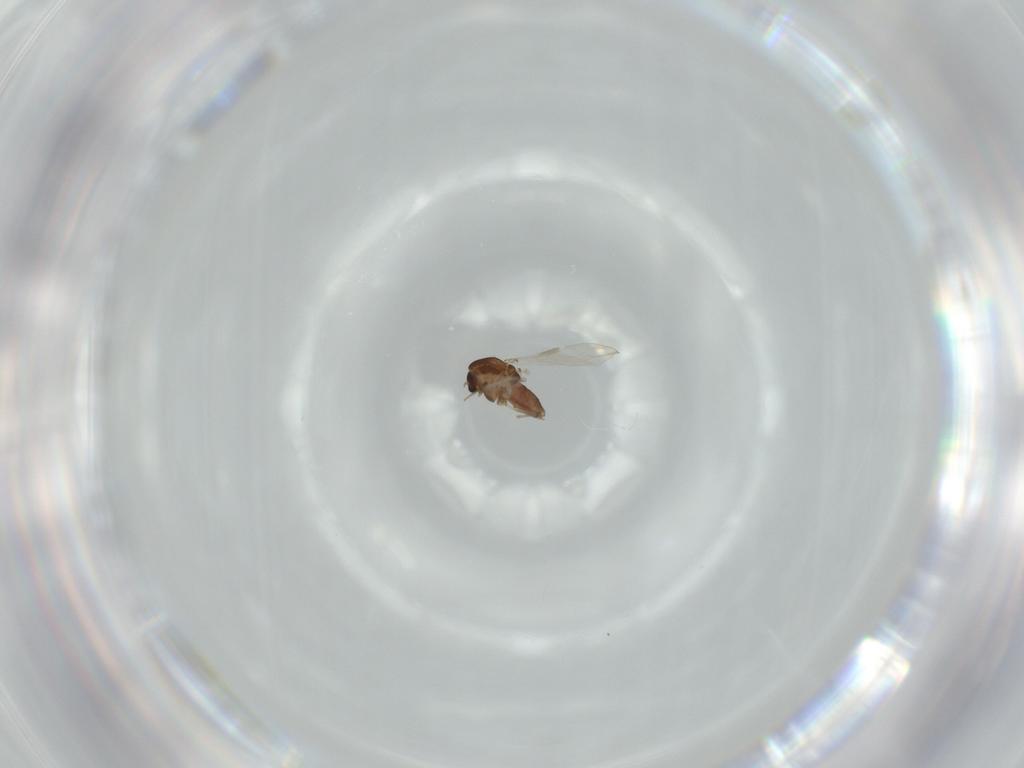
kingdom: Animalia
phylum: Arthropoda
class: Insecta
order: Diptera
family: Chironomidae
